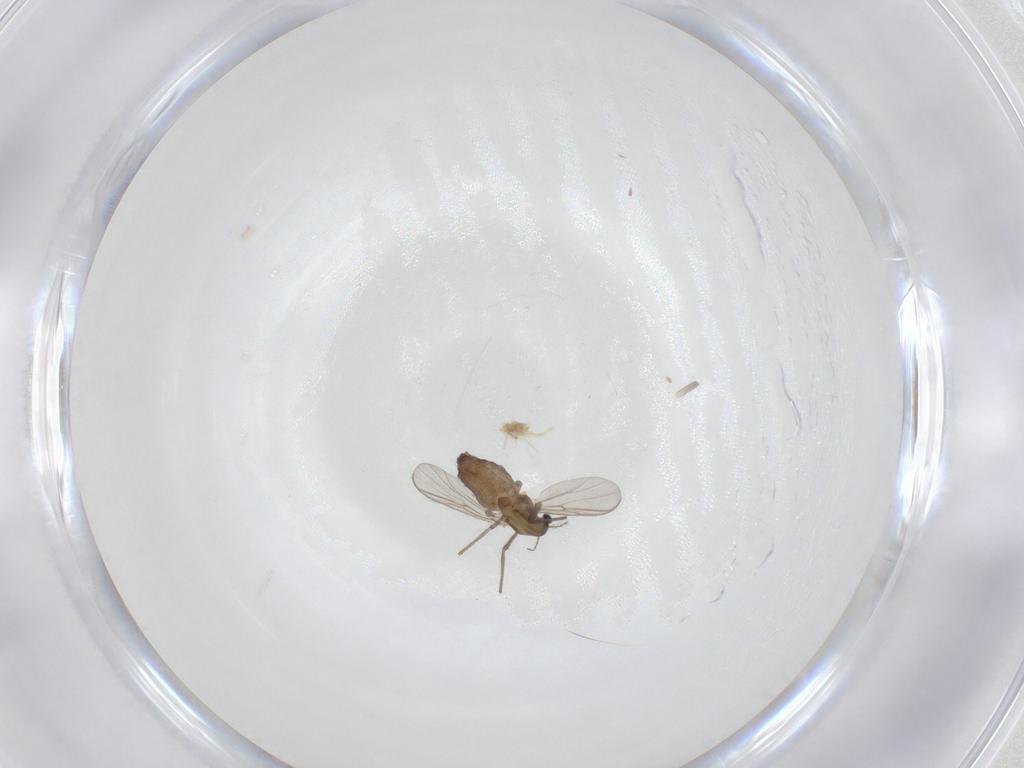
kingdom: Animalia
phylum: Arthropoda
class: Insecta
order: Diptera
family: Chironomidae
